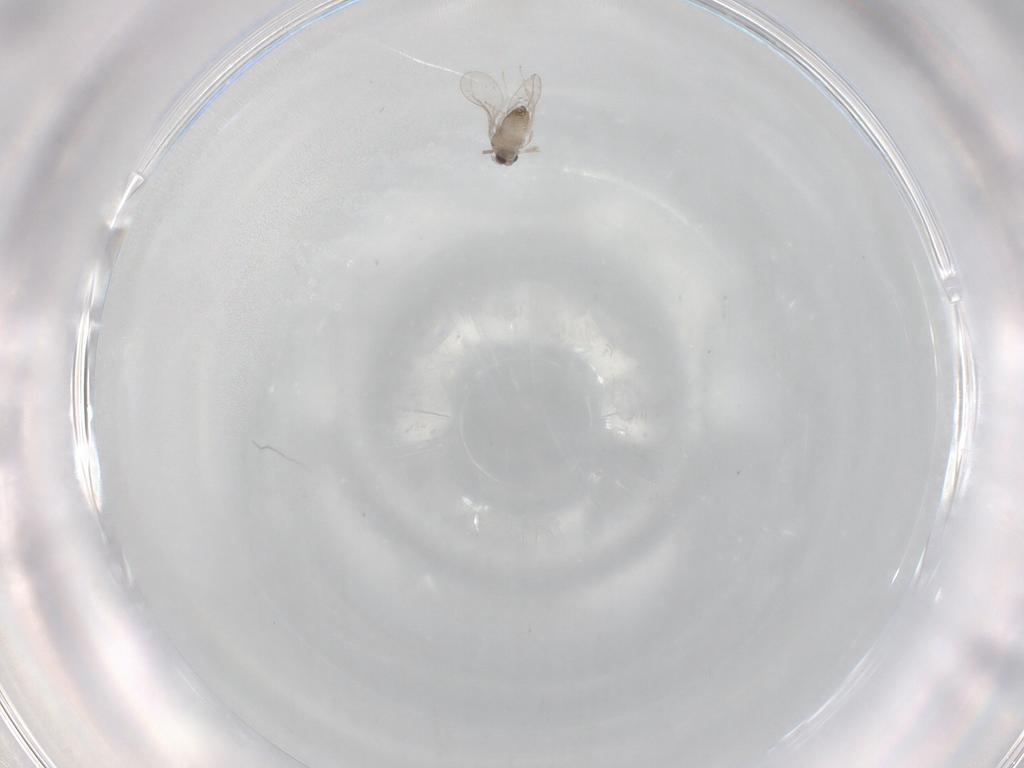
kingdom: Animalia
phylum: Arthropoda
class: Insecta
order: Diptera
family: Cecidomyiidae
